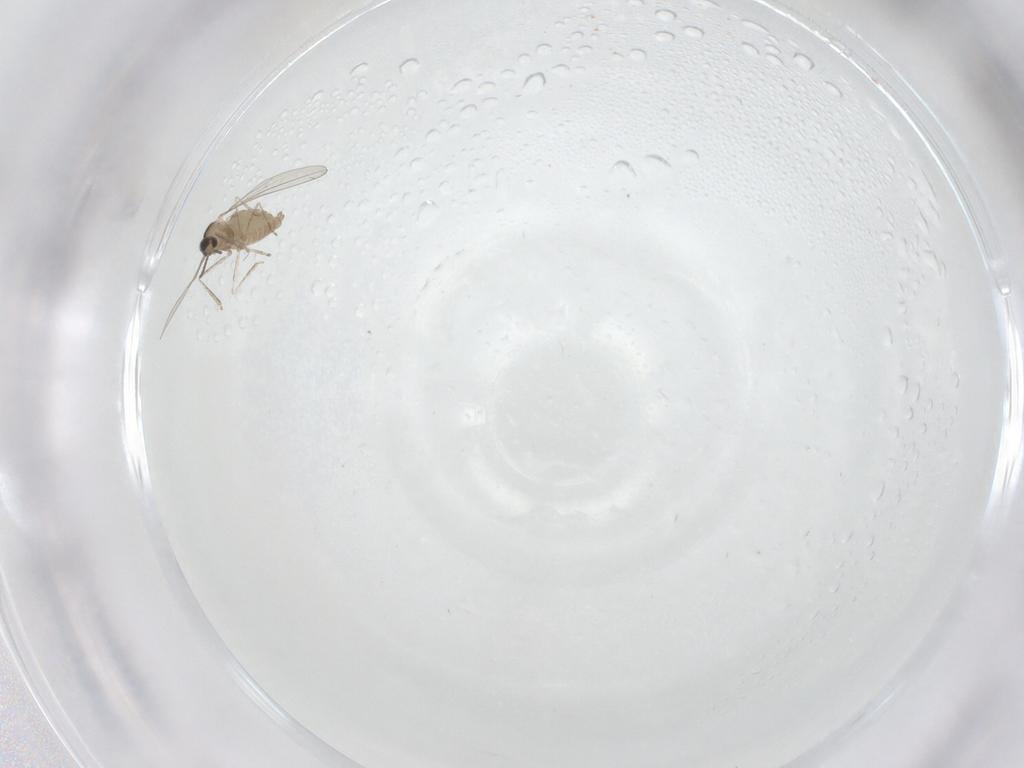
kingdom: Animalia
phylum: Arthropoda
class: Insecta
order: Diptera
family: Cecidomyiidae
